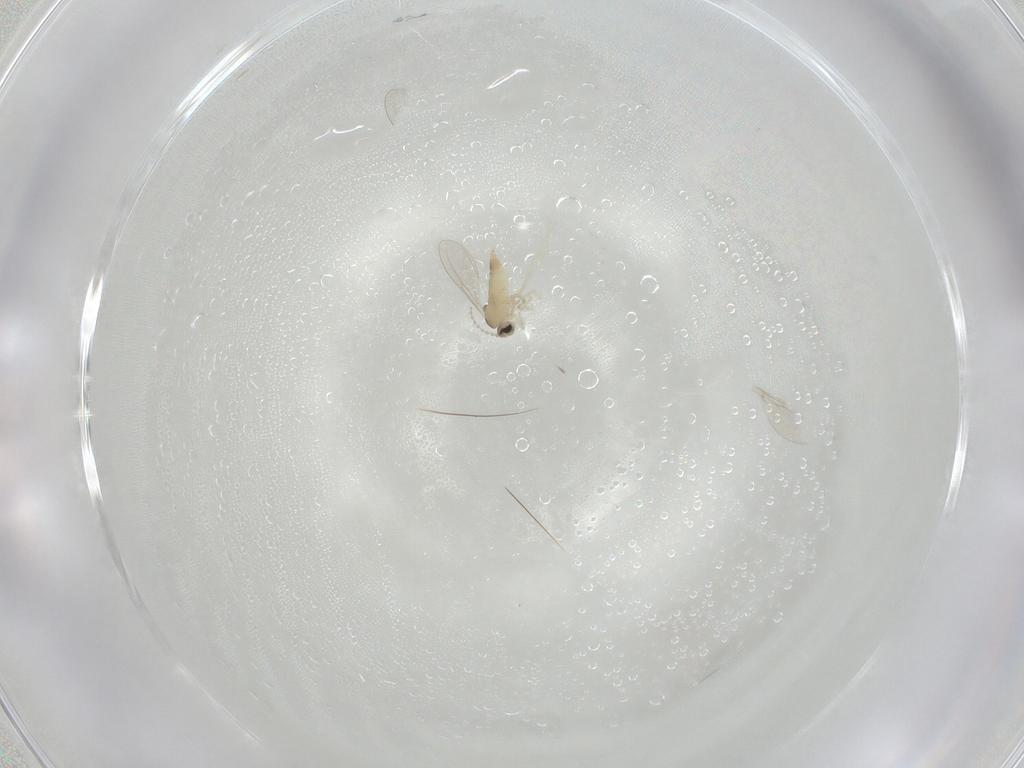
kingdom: Animalia
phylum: Arthropoda
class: Insecta
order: Diptera
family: Cecidomyiidae
